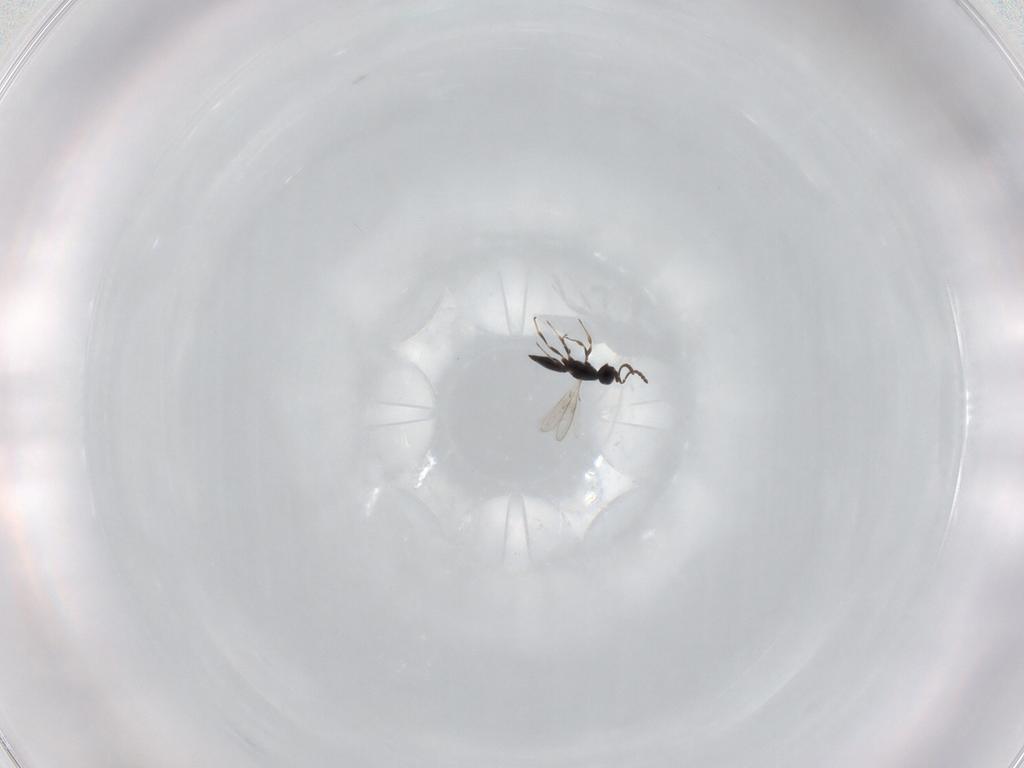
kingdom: Animalia
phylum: Arthropoda
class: Insecta
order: Hymenoptera
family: Scelionidae
